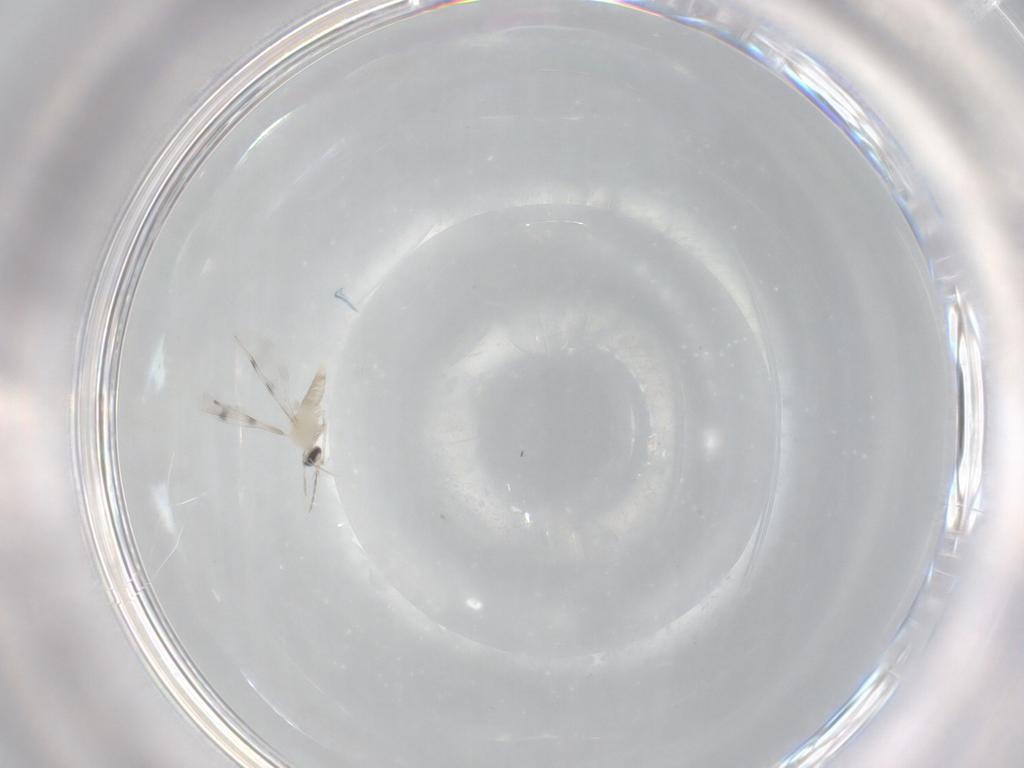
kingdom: Animalia
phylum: Arthropoda
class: Insecta
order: Diptera
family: Cecidomyiidae
